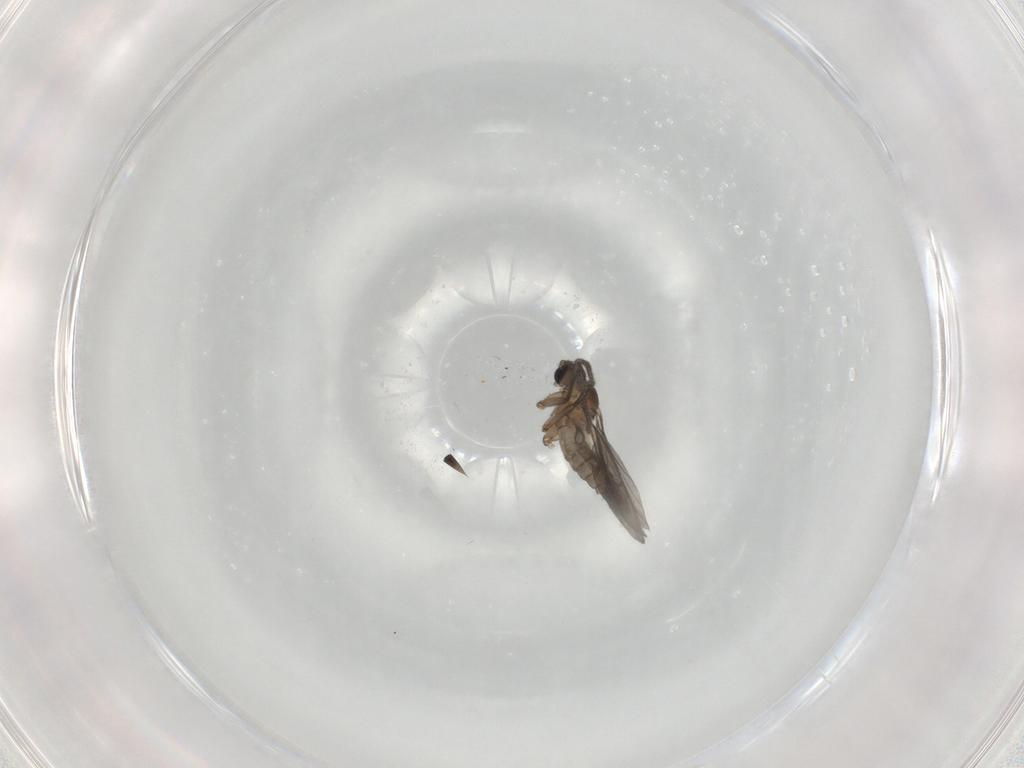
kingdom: Animalia
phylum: Arthropoda
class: Insecta
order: Diptera
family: Sciaridae
